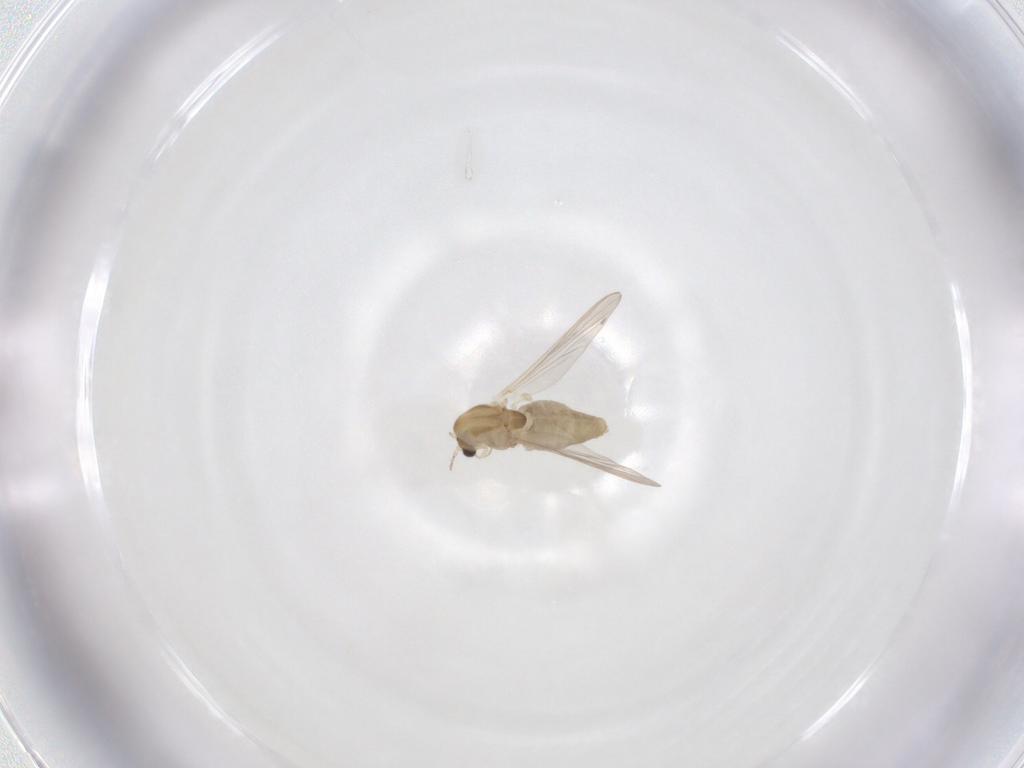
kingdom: Animalia
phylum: Arthropoda
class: Insecta
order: Diptera
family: Chironomidae
